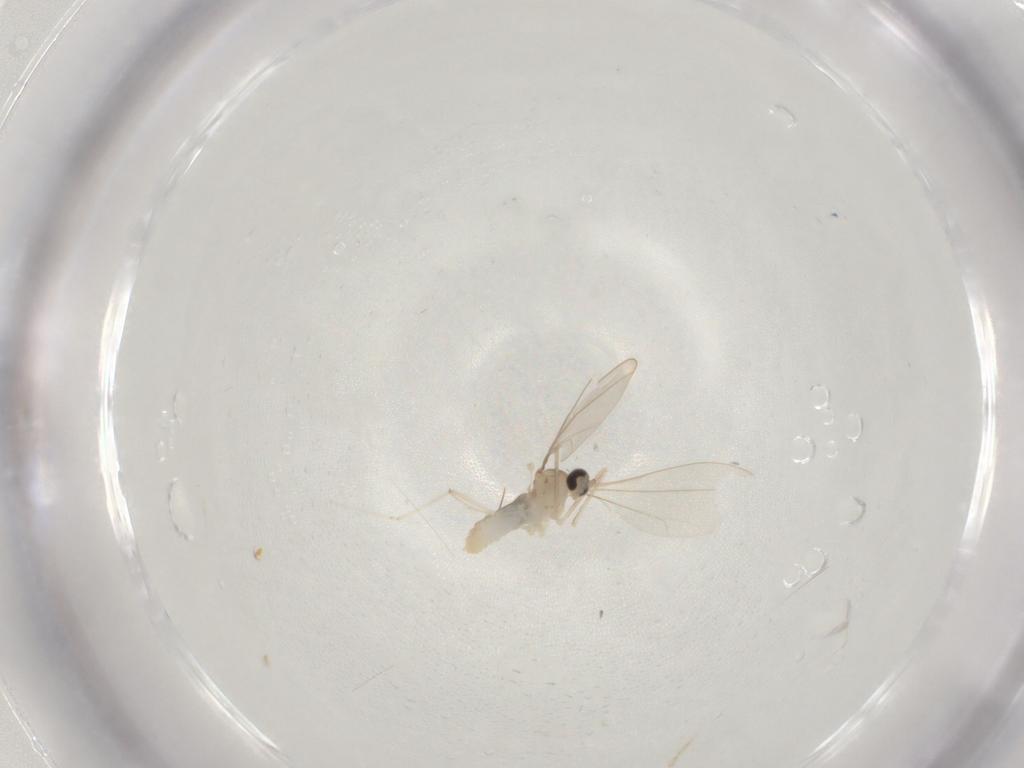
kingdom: Animalia
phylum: Arthropoda
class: Insecta
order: Diptera
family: Cecidomyiidae
